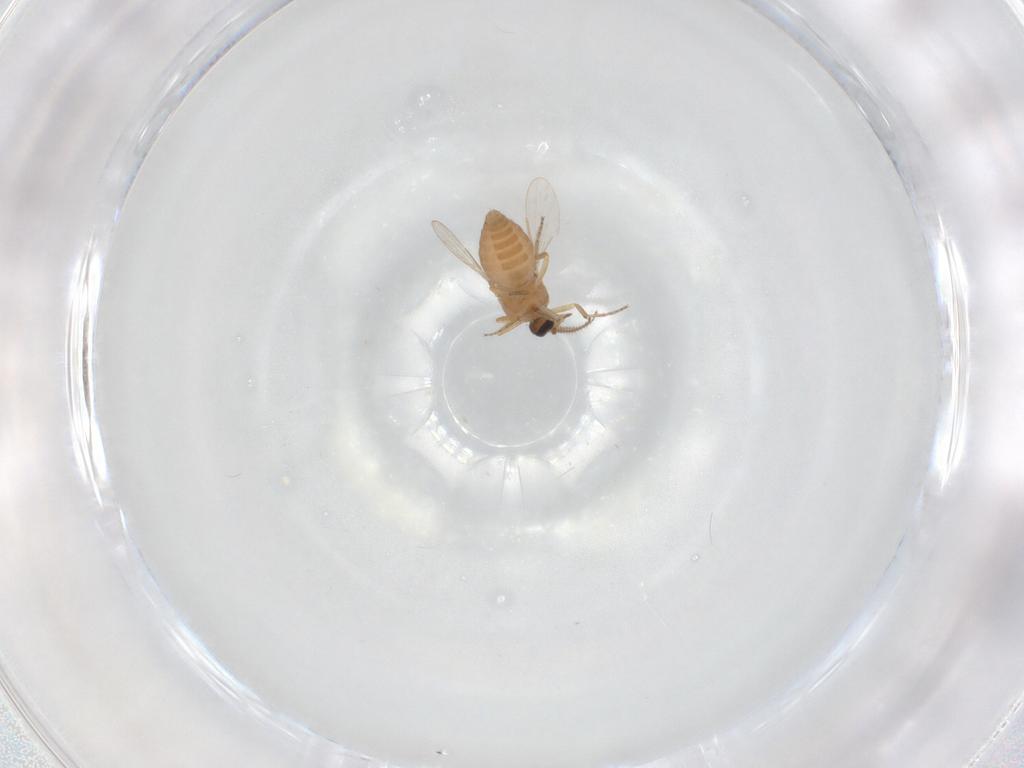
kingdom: Animalia
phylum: Arthropoda
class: Insecta
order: Diptera
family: Ceratopogonidae
